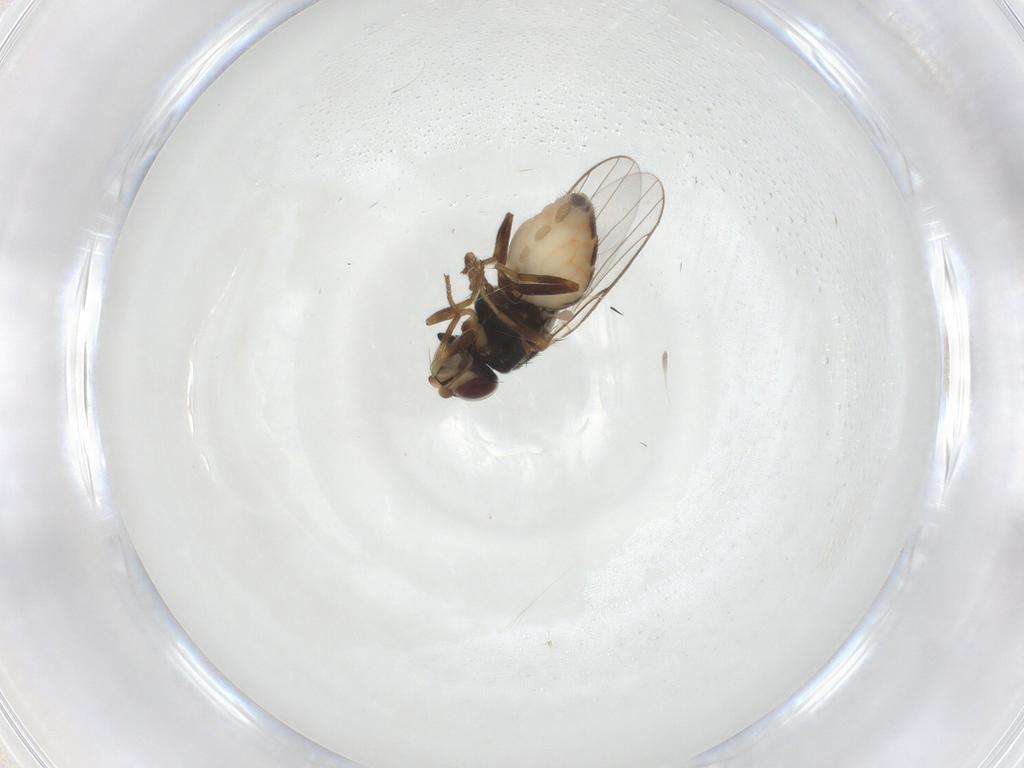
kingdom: Animalia
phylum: Arthropoda
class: Insecta
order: Diptera
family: Chloropidae
